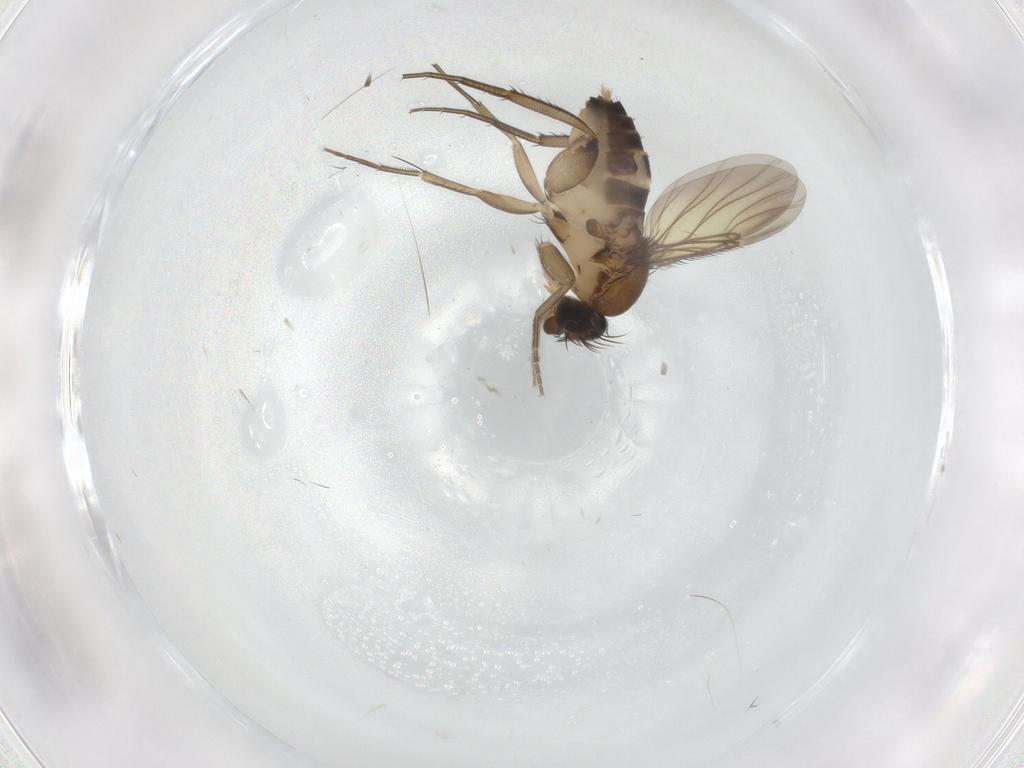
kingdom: Animalia
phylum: Arthropoda
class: Insecta
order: Diptera
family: Phoridae
